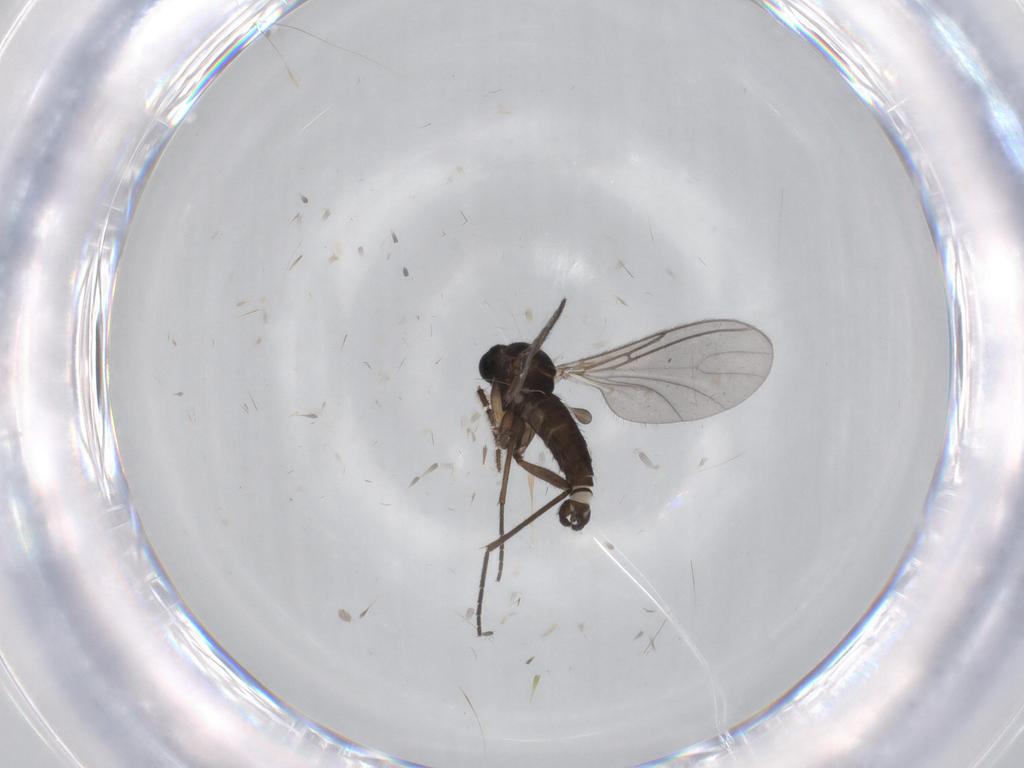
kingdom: Animalia
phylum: Arthropoda
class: Insecta
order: Diptera
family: Sciaridae
